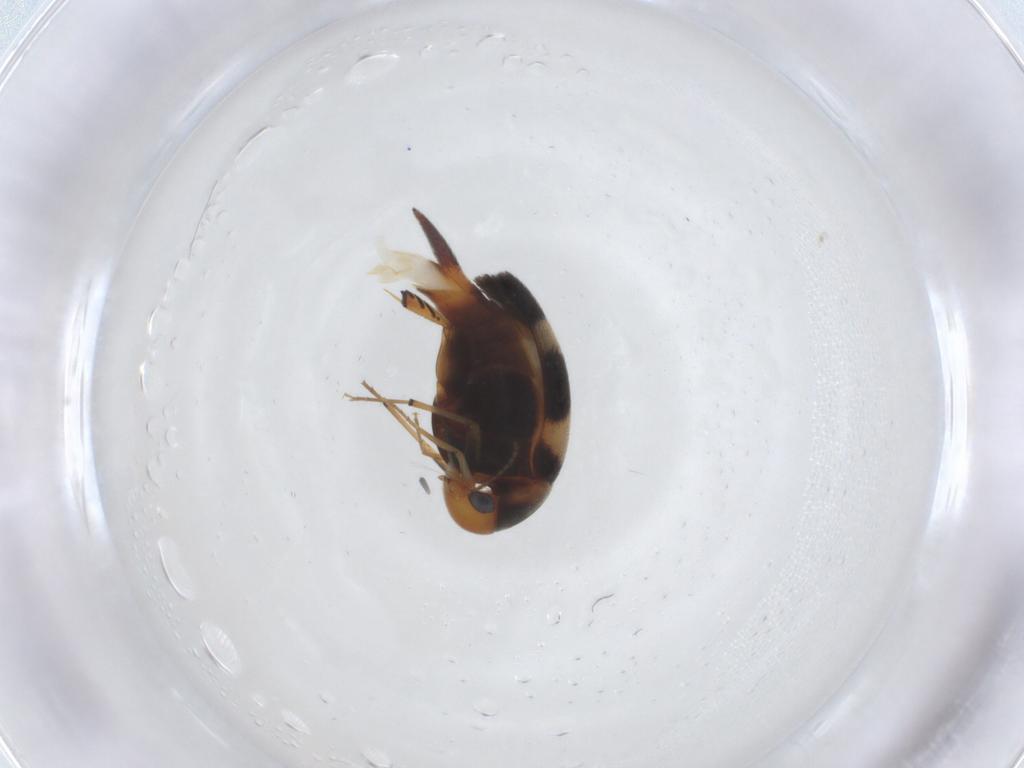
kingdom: Animalia
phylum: Arthropoda
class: Insecta
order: Coleoptera
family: Mordellidae
